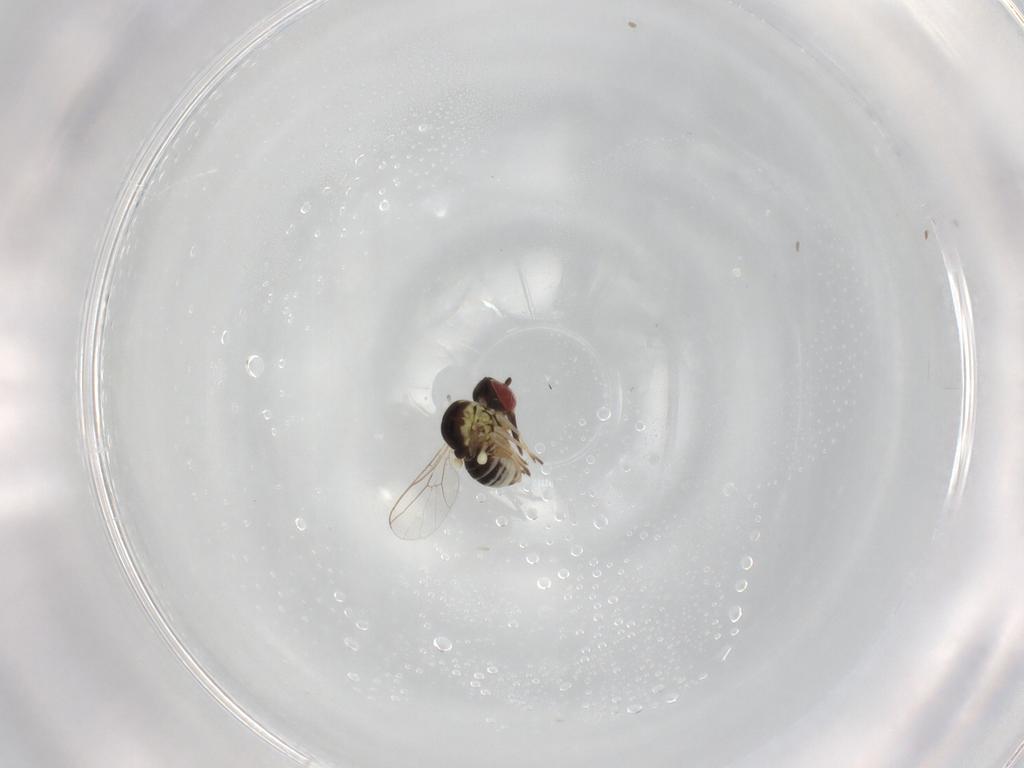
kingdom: Animalia
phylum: Arthropoda
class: Insecta
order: Diptera
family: Bombyliidae
